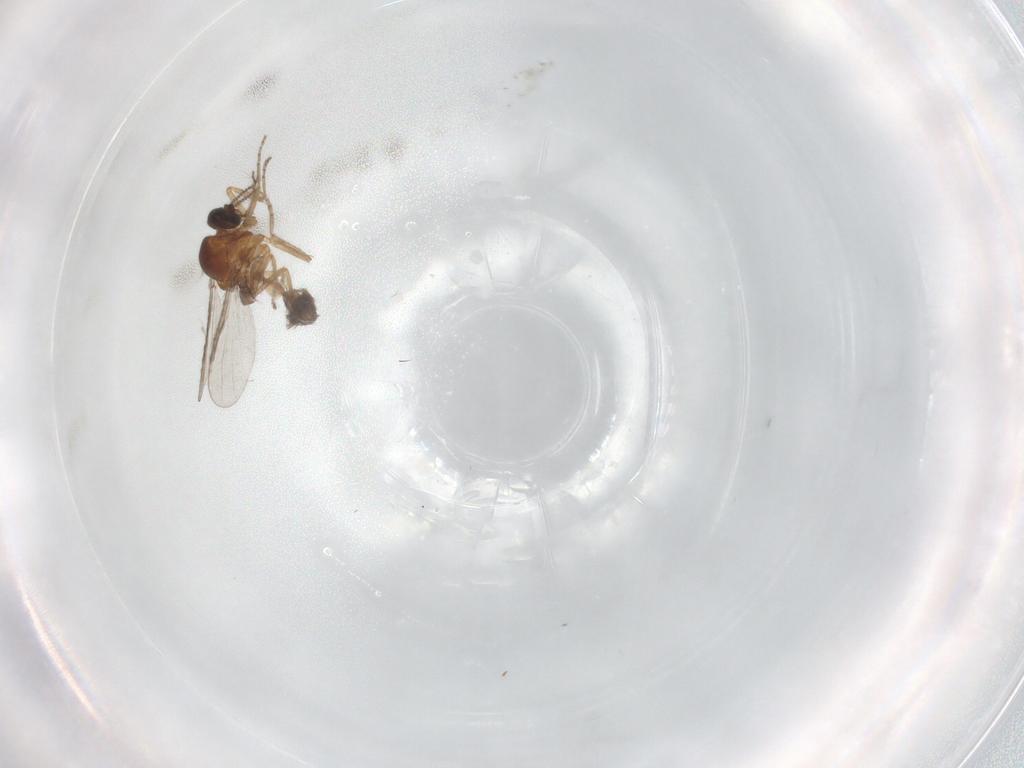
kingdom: Animalia
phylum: Arthropoda
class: Insecta
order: Diptera
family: Ceratopogonidae
